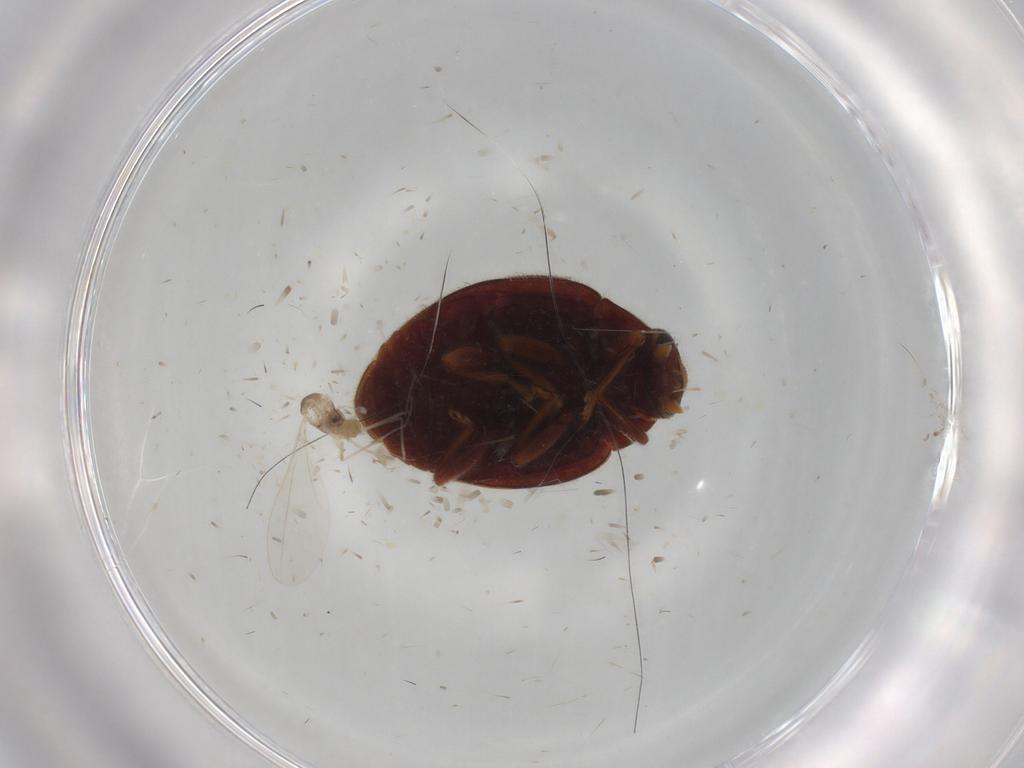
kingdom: Animalia
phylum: Arthropoda
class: Insecta
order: Coleoptera
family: Coccinellidae
